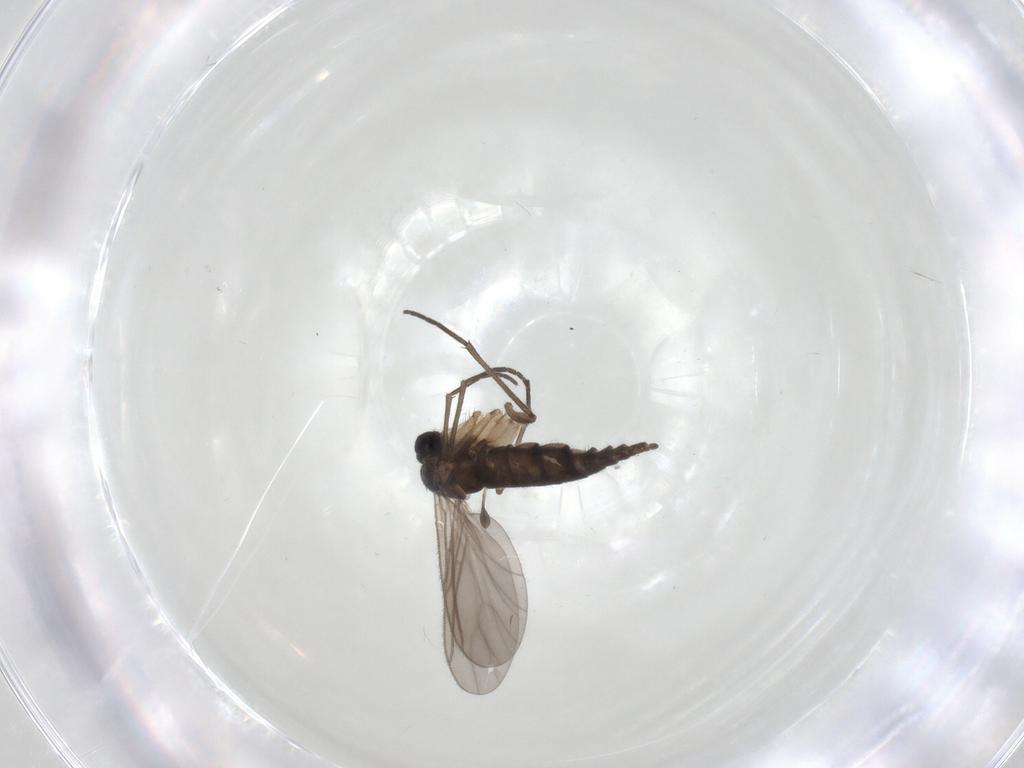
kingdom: Animalia
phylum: Arthropoda
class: Insecta
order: Diptera
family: Sciaridae
